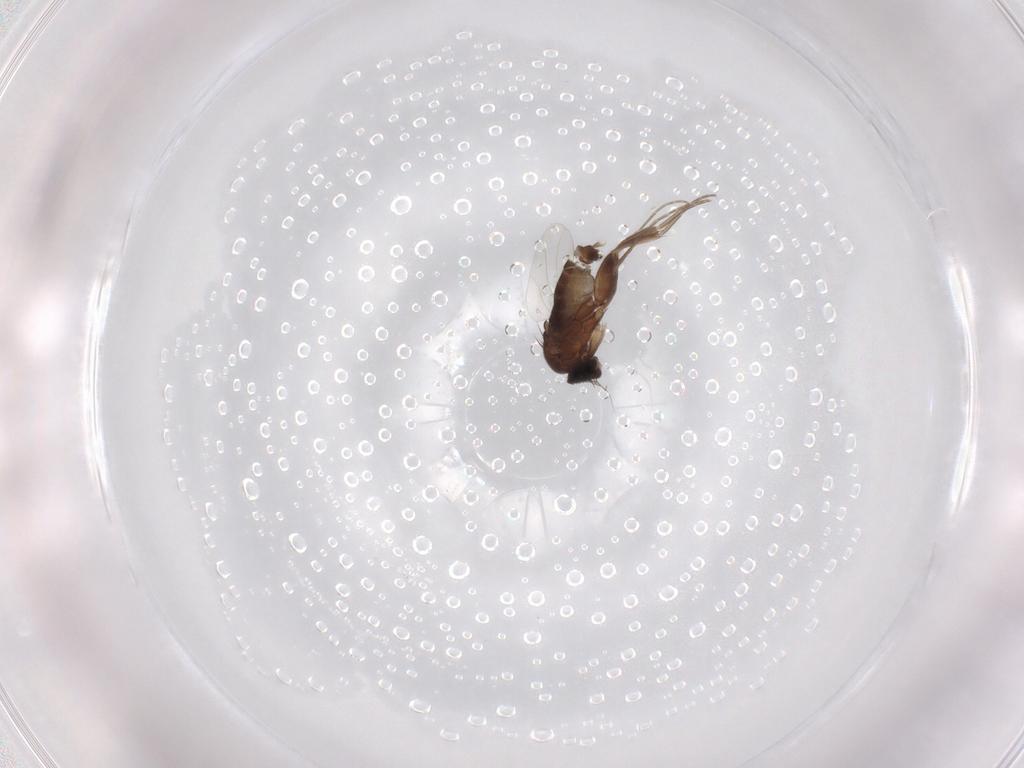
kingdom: Animalia
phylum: Arthropoda
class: Insecta
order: Diptera
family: Phoridae
